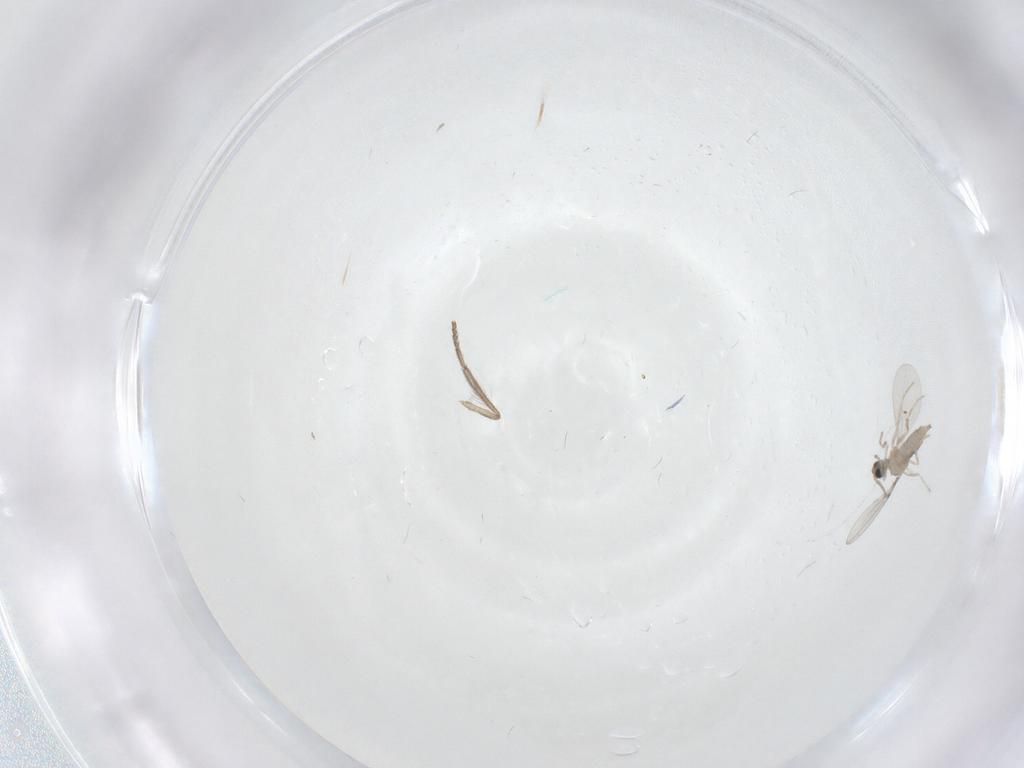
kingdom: Animalia
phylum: Arthropoda
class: Insecta
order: Diptera
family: Cecidomyiidae
